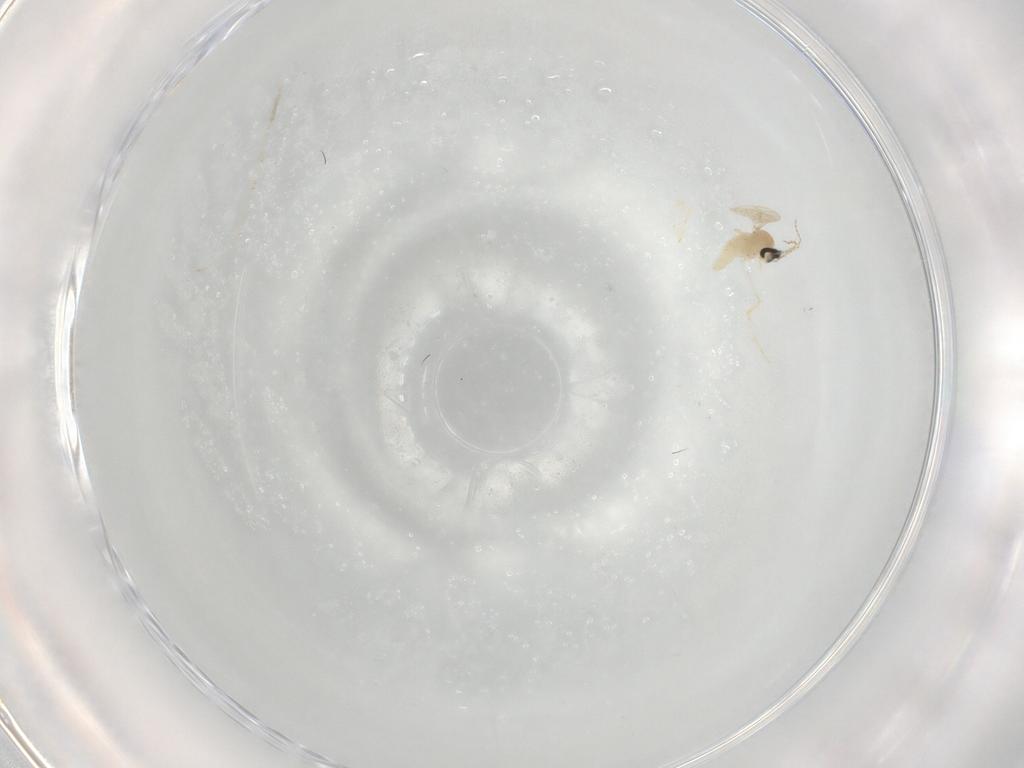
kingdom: Animalia
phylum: Arthropoda
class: Insecta
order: Diptera
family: Cecidomyiidae
